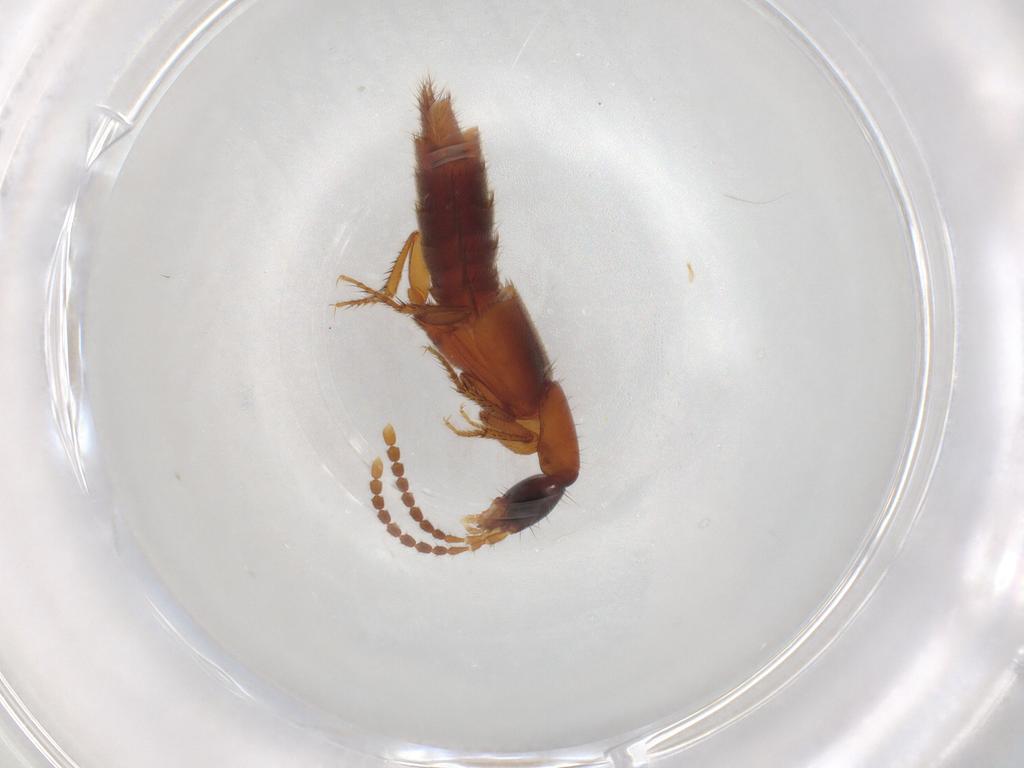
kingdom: Animalia
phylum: Arthropoda
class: Insecta
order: Coleoptera
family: Staphylinidae
